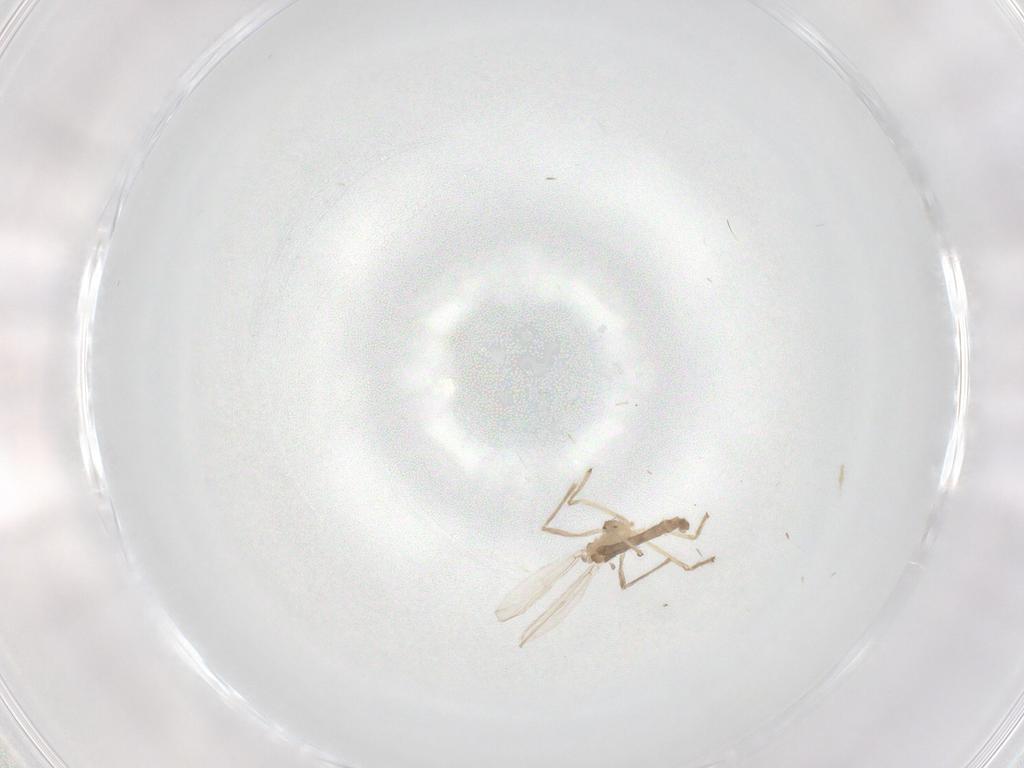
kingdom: Animalia
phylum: Arthropoda
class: Insecta
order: Diptera
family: Chironomidae
